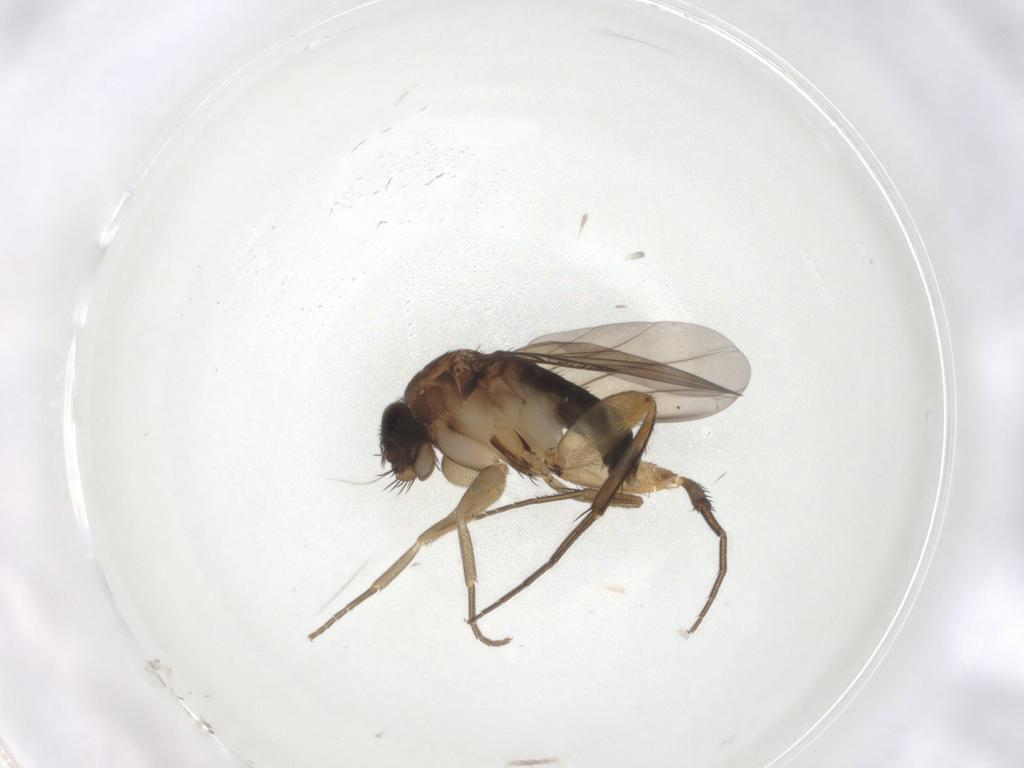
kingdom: Animalia
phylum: Arthropoda
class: Insecta
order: Diptera
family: Phoridae
